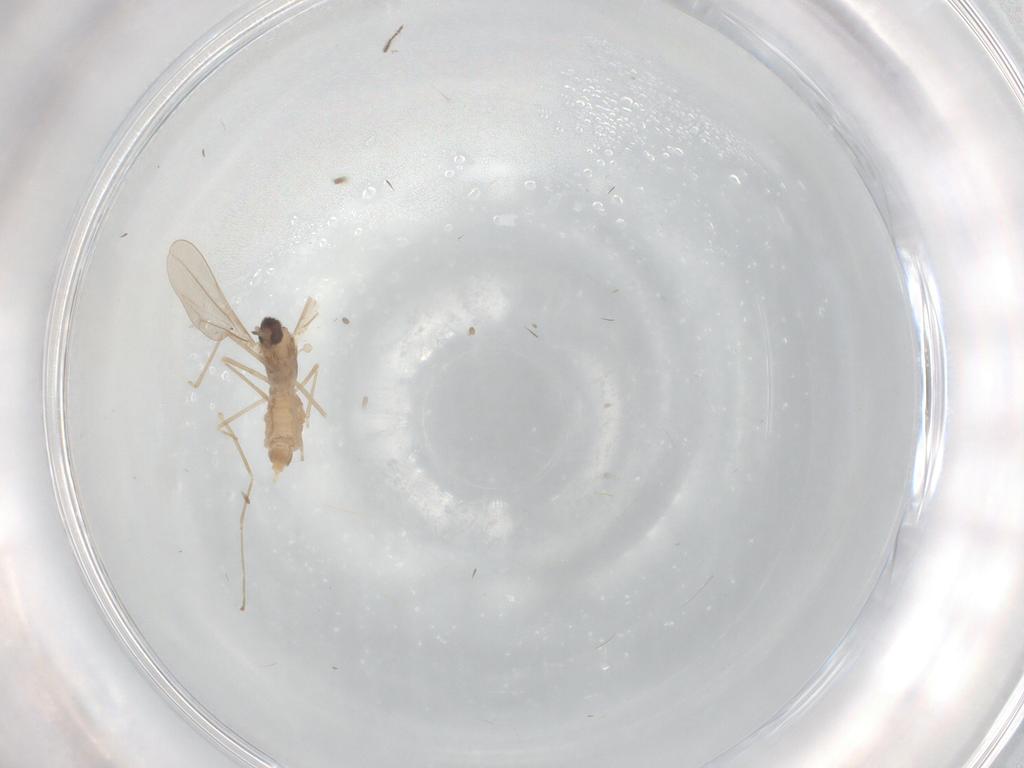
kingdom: Animalia
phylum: Arthropoda
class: Insecta
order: Diptera
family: Cecidomyiidae
